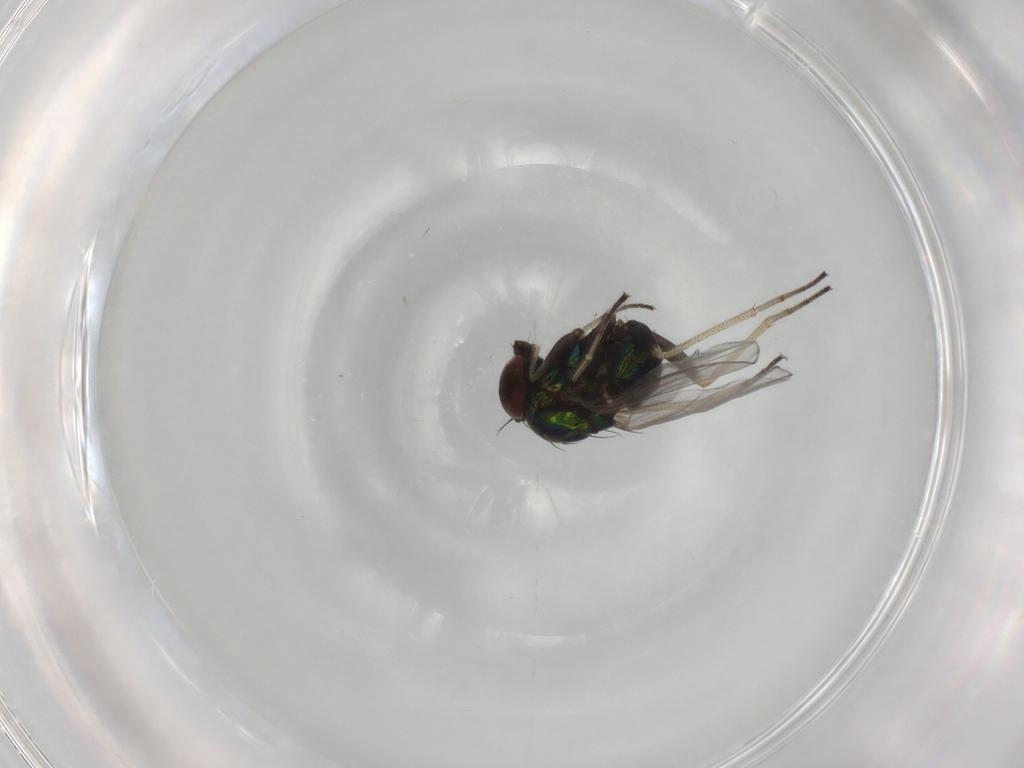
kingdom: Animalia
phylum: Arthropoda
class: Insecta
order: Diptera
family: Dolichopodidae
